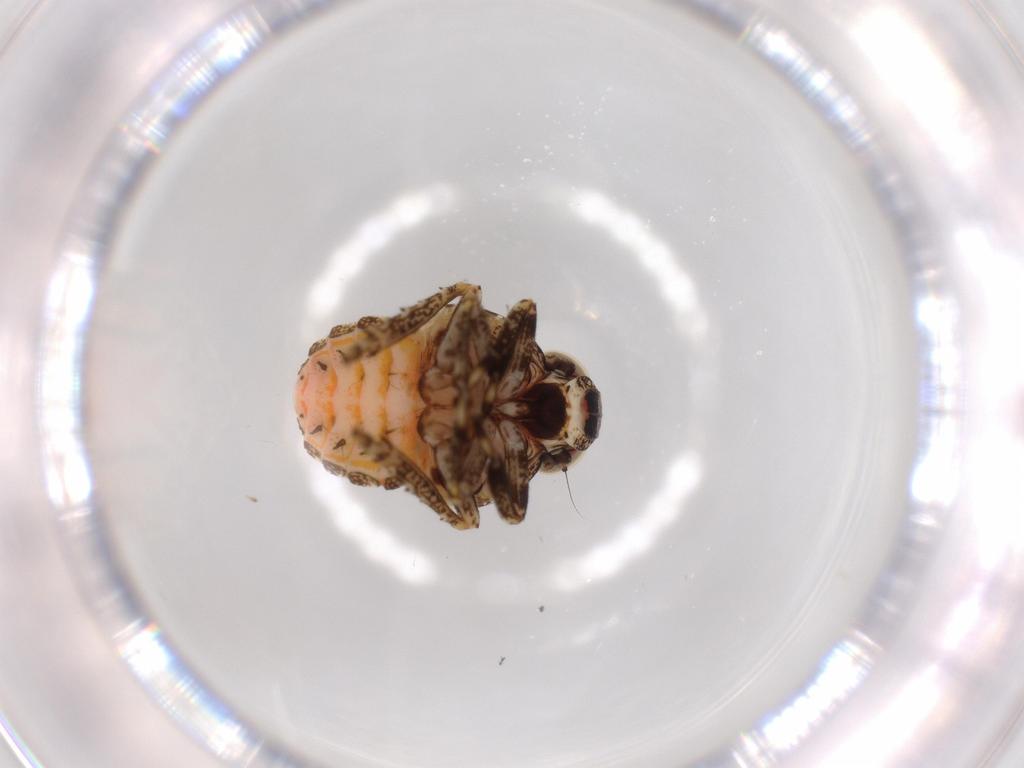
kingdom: Animalia
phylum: Arthropoda
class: Insecta
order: Hemiptera
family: Issidae
